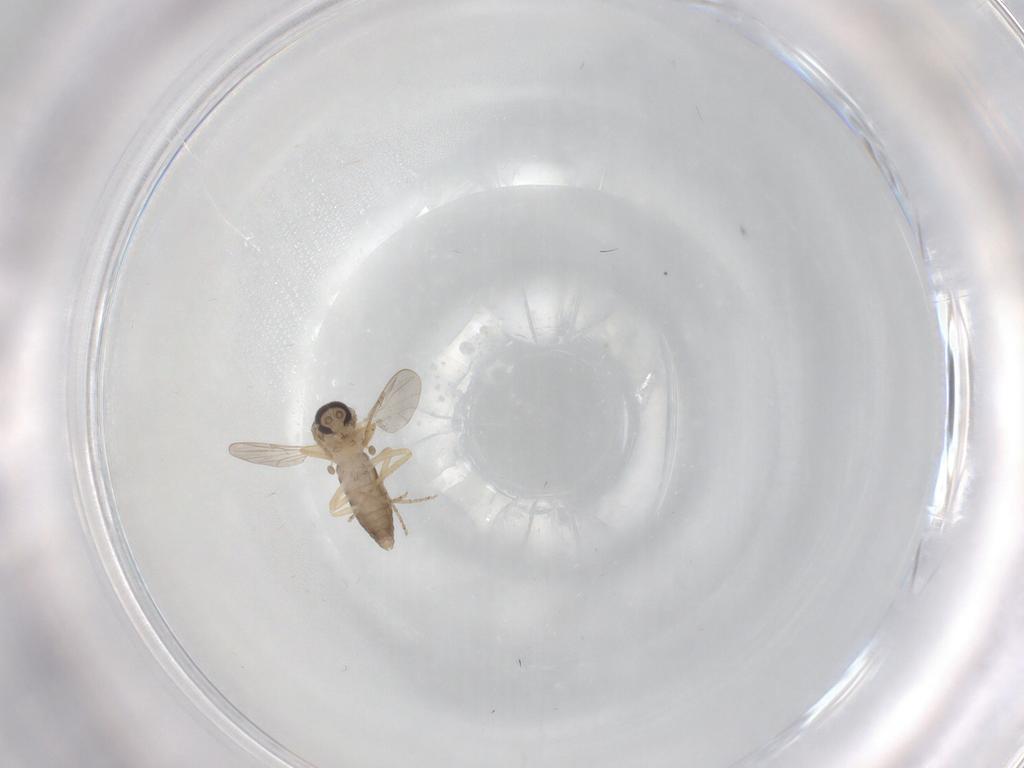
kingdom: Animalia
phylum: Arthropoda
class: Insecta
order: Diptera
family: Ceratopogonidae
